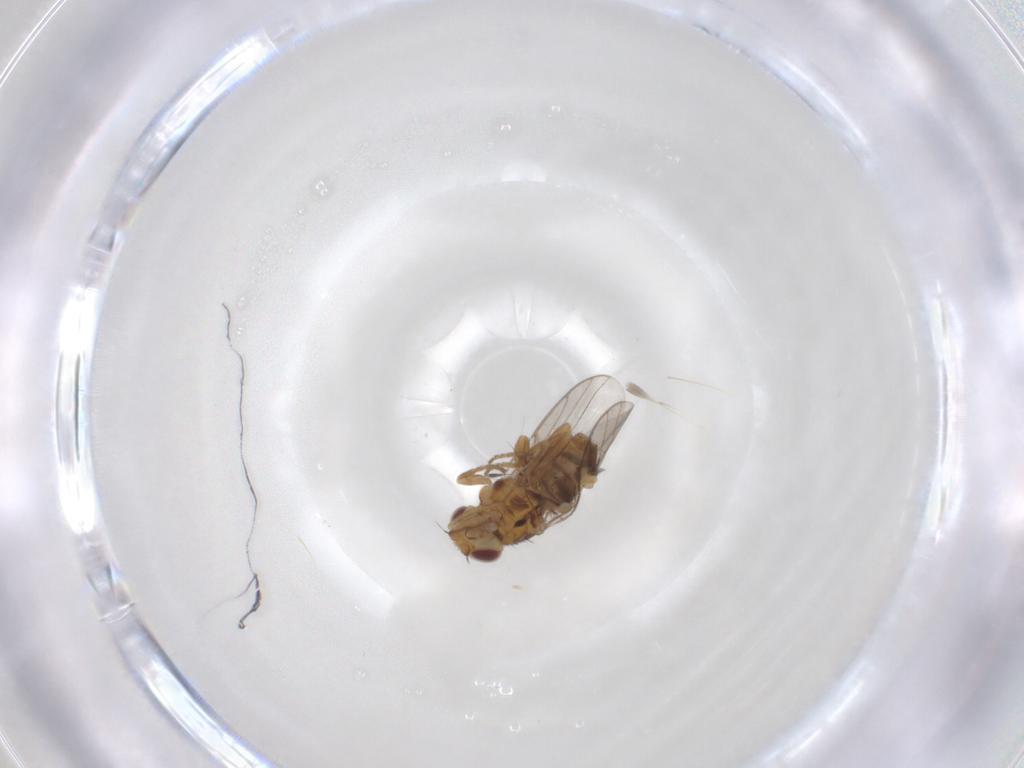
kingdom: Animalia
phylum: Arthropoda
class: Insecta
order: Diptera
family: Chloropidae
